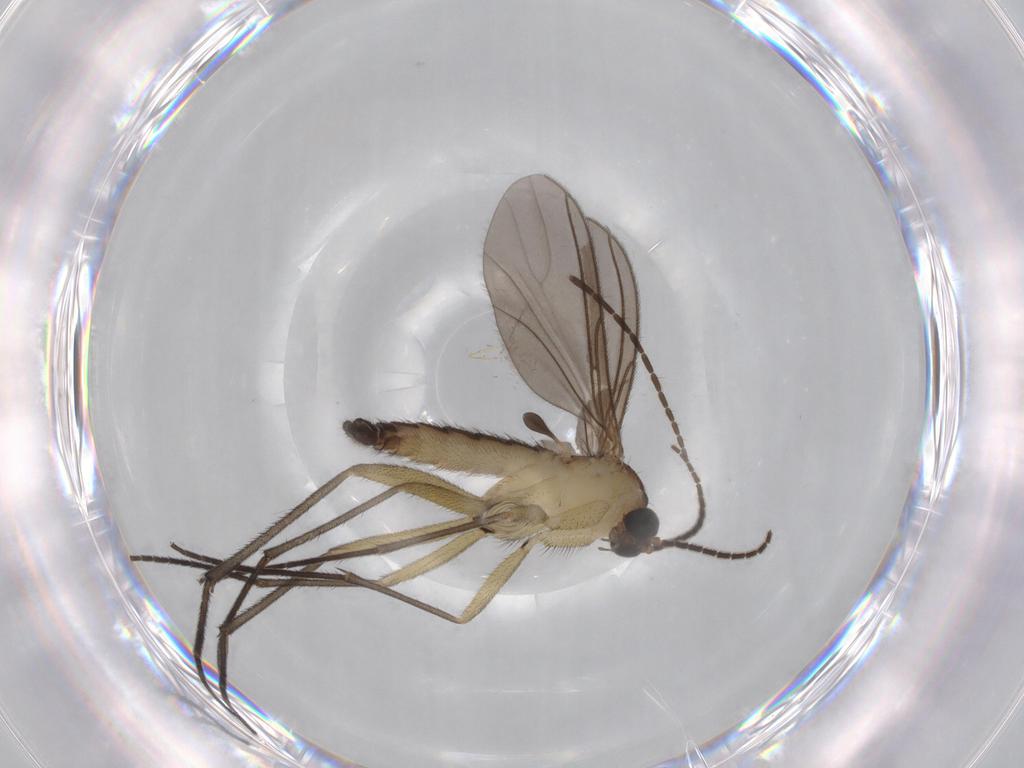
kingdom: Animalia
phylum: Arthropoda
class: Insecta
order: Diptera
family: Sciaridae
